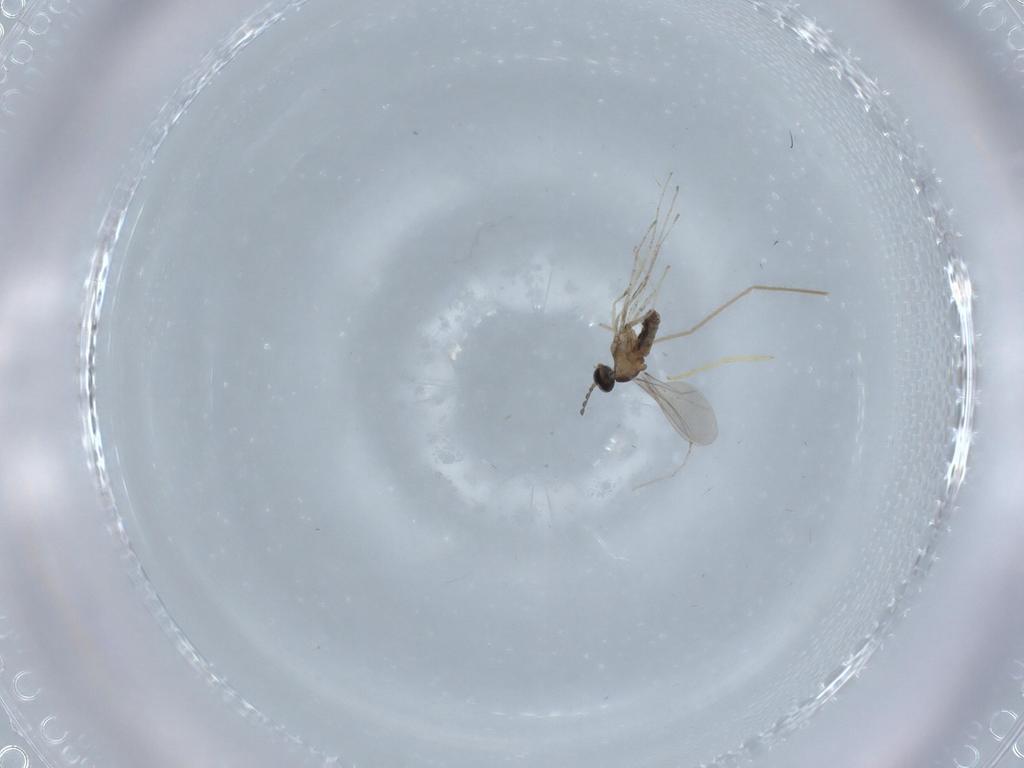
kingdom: Animalia
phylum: Arthropoda
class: Insecta
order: Diptera
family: Chironomidae
